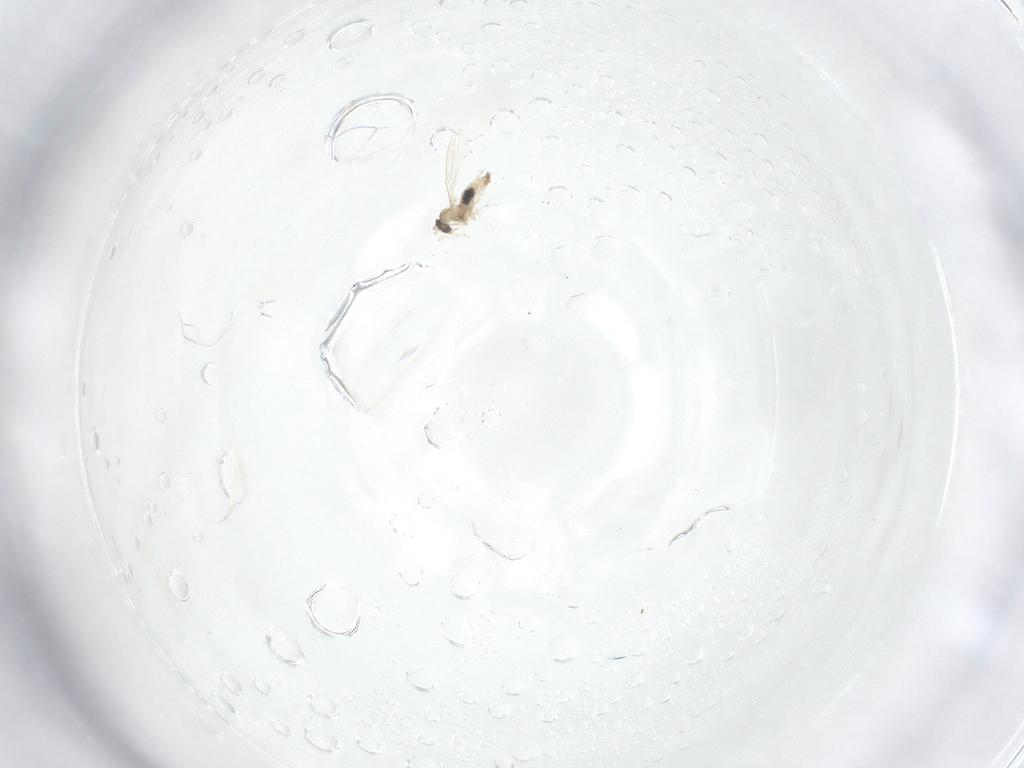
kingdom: Animalia
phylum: Arthropoda
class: Insecta
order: Diptera
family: Cecidomyiidae
